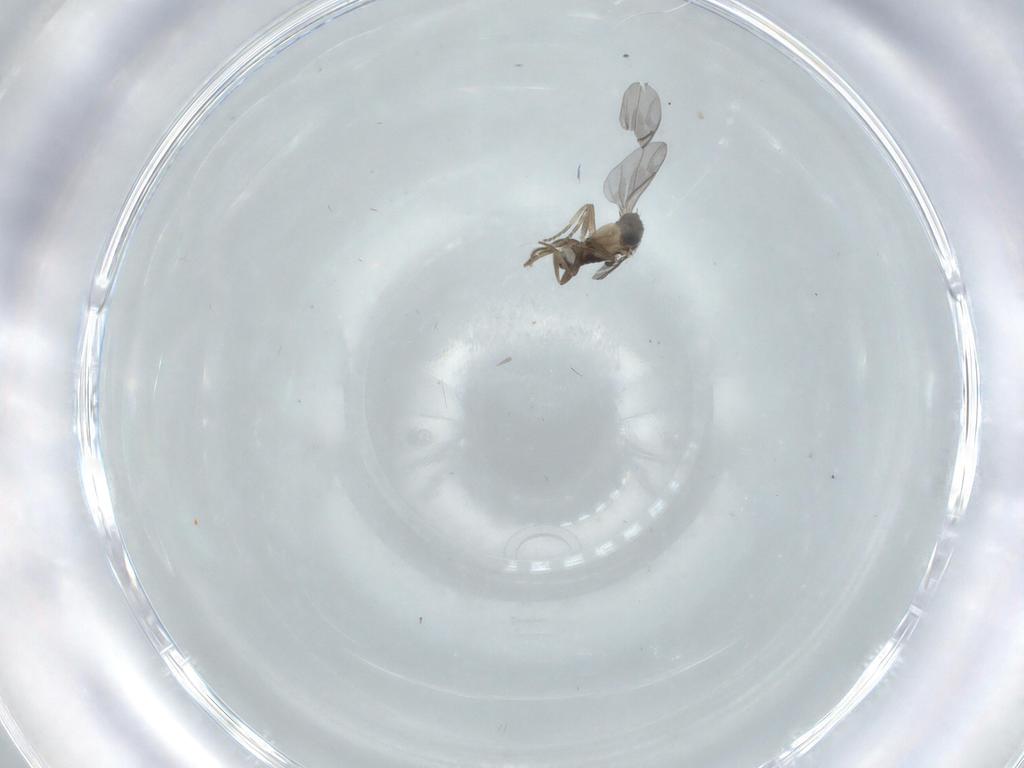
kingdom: Animalia
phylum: Arthropoda
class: Insecta
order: Diptera
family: Cecidomyiidae
